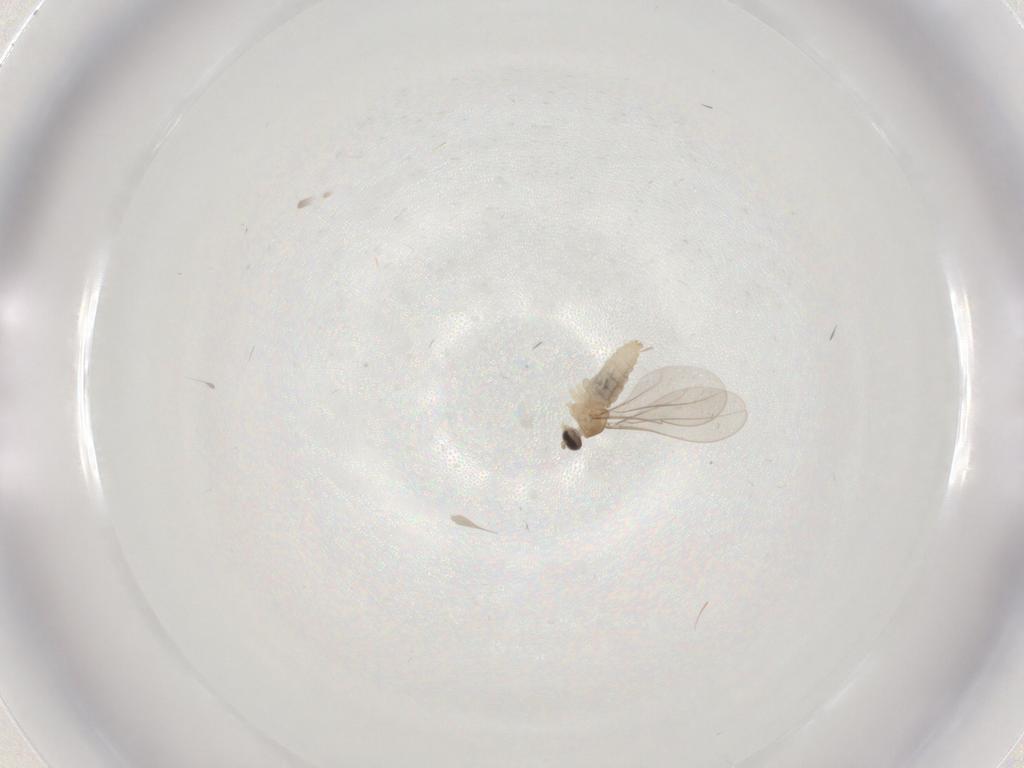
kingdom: Animalia
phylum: Arthropoda
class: Insecta
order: Diptera
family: Cecidomyiidae
